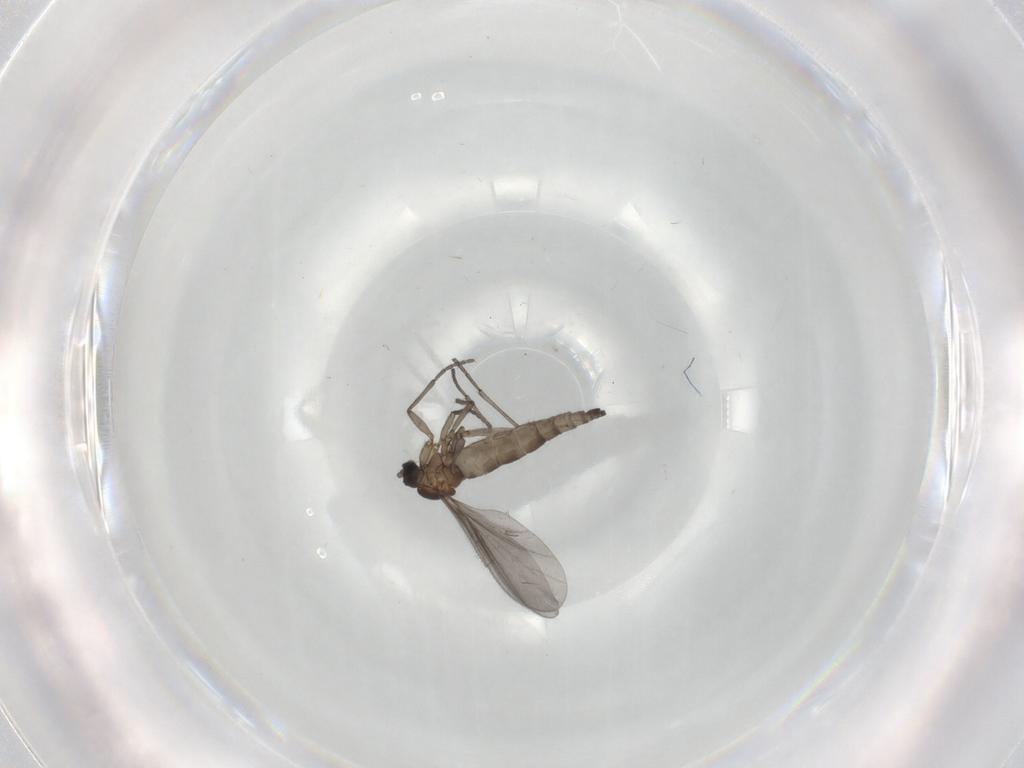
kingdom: Animalia
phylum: Arthropoda
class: Insecta
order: Diptera
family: Sciaridae
